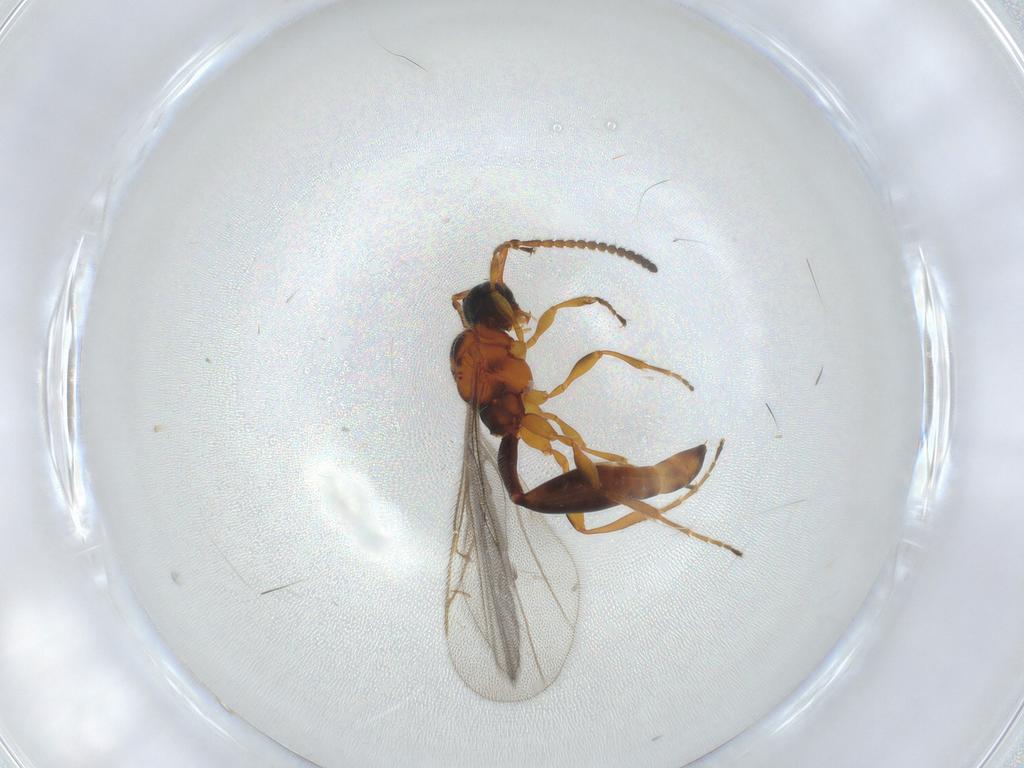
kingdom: Animalia
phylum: Arthropoda
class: Insecta
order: Hymenoptera
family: Diapriidae
